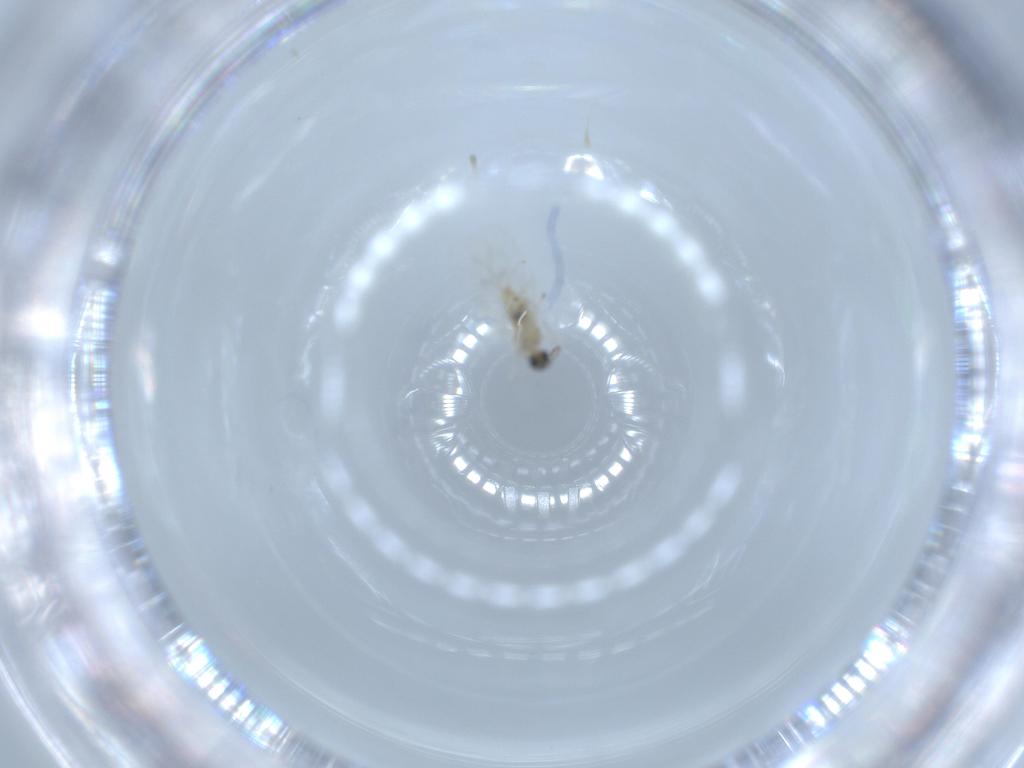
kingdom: Animalia
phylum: Arthropoda
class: Insecta
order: Diptera
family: Cecidomyiidae
